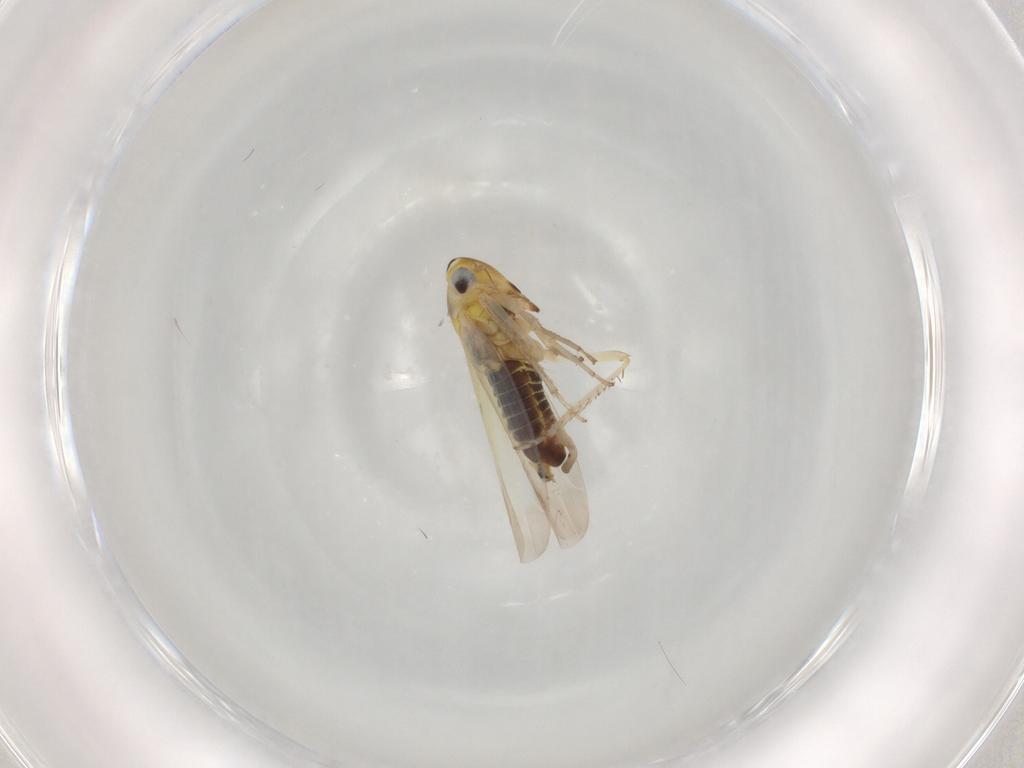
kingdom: Animalia
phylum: Arthropoda
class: Insecta
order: Hemiptera
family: Cicadellidae
